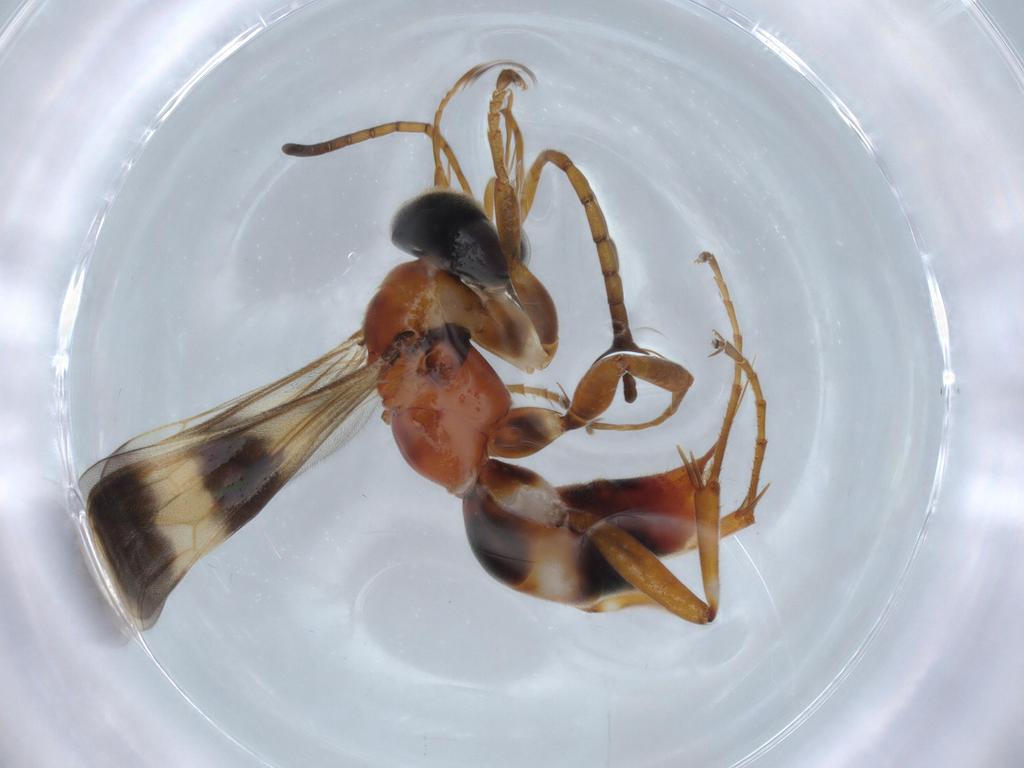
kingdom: Animalia
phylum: Arthropoda
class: Insecta
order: Hymenoptera
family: Pompilidae
